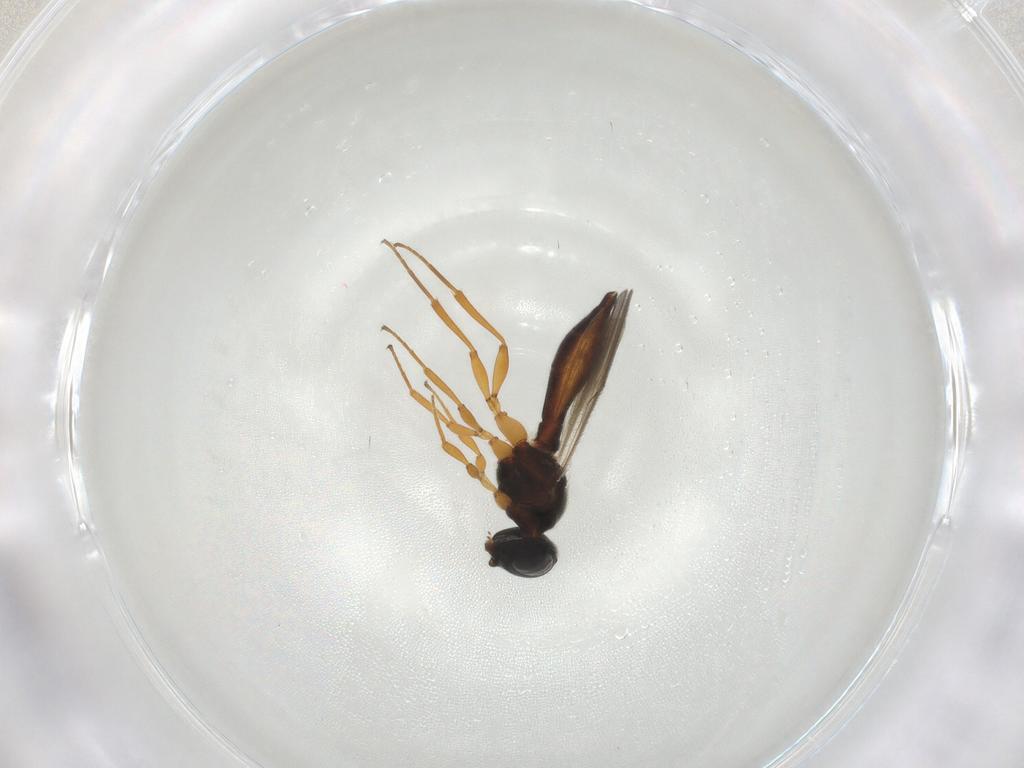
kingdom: Animalia
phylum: Arthropoda
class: Insecta
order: Hymenoptera
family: Scelionidae
